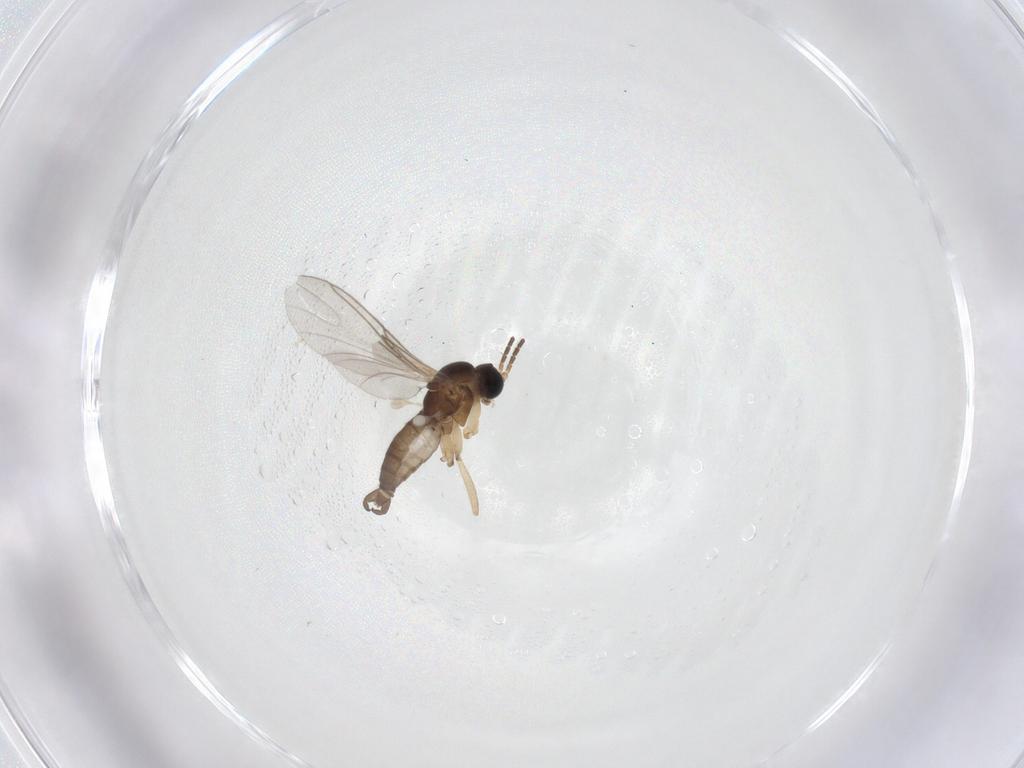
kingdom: Animalia
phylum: Arthropoda
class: Insecta
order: Diptera
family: Sciaridae
